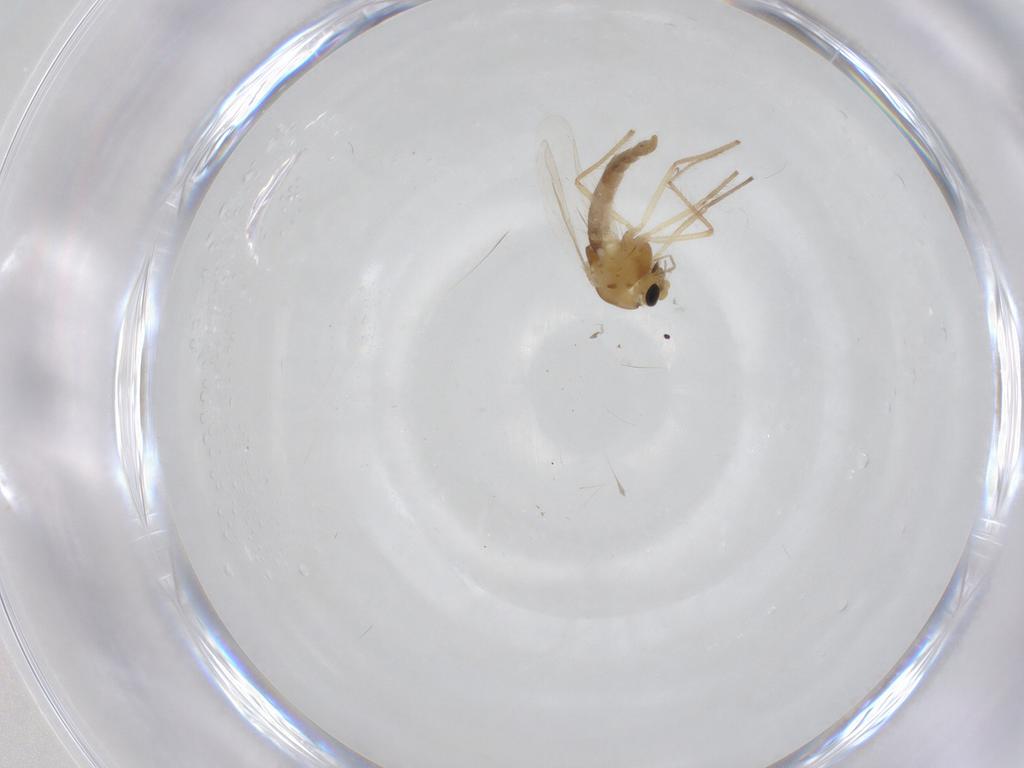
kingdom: Animalia
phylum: Arthropoda
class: Insecta
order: Diptera
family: Chironomidae
